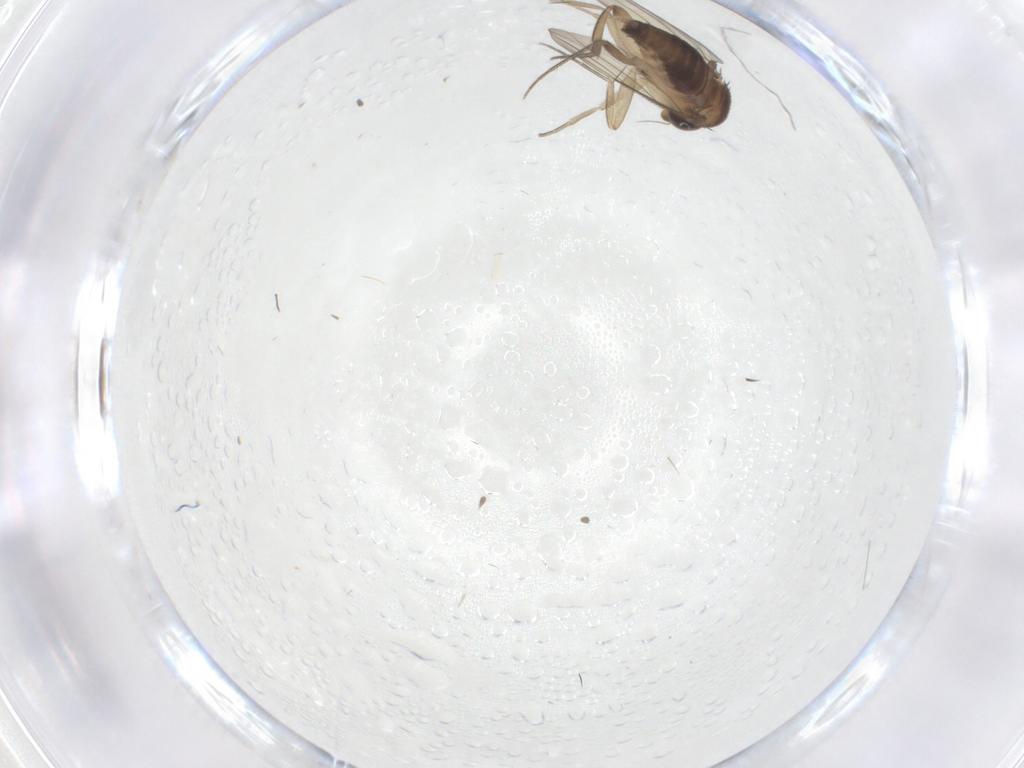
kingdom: Animalia
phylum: Arthropoda
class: Insecta
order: Diptera
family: Phoridae
